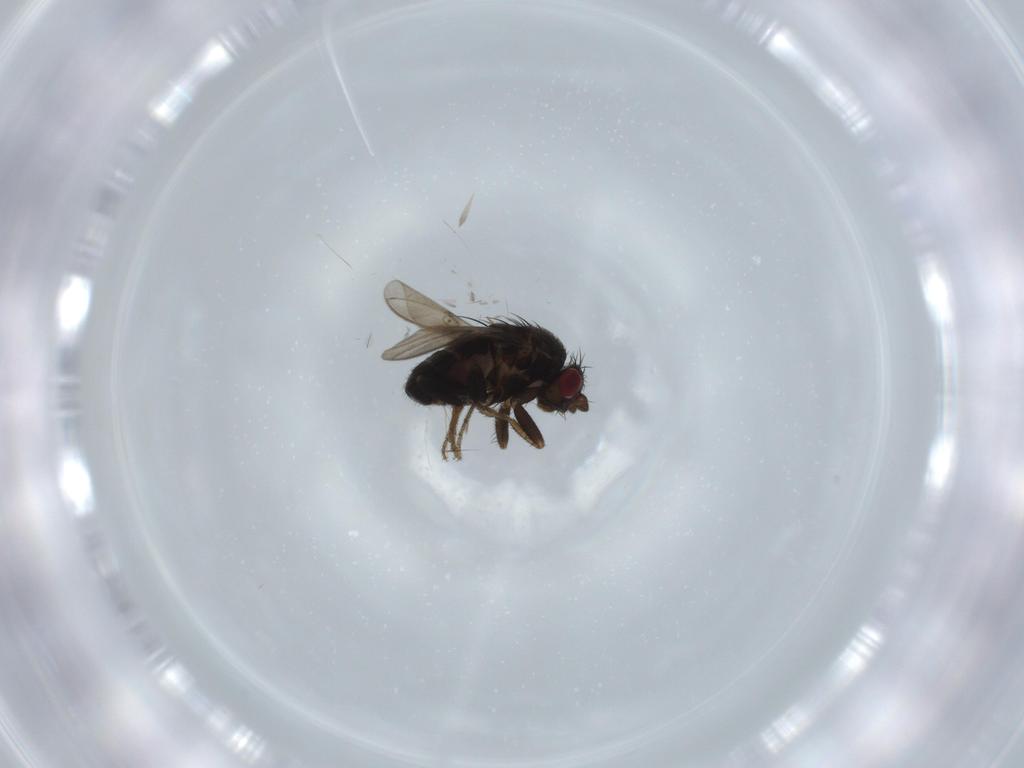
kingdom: Animalia
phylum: Arthropoda
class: Insecta
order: Diptera
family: Sphaeroceridae
